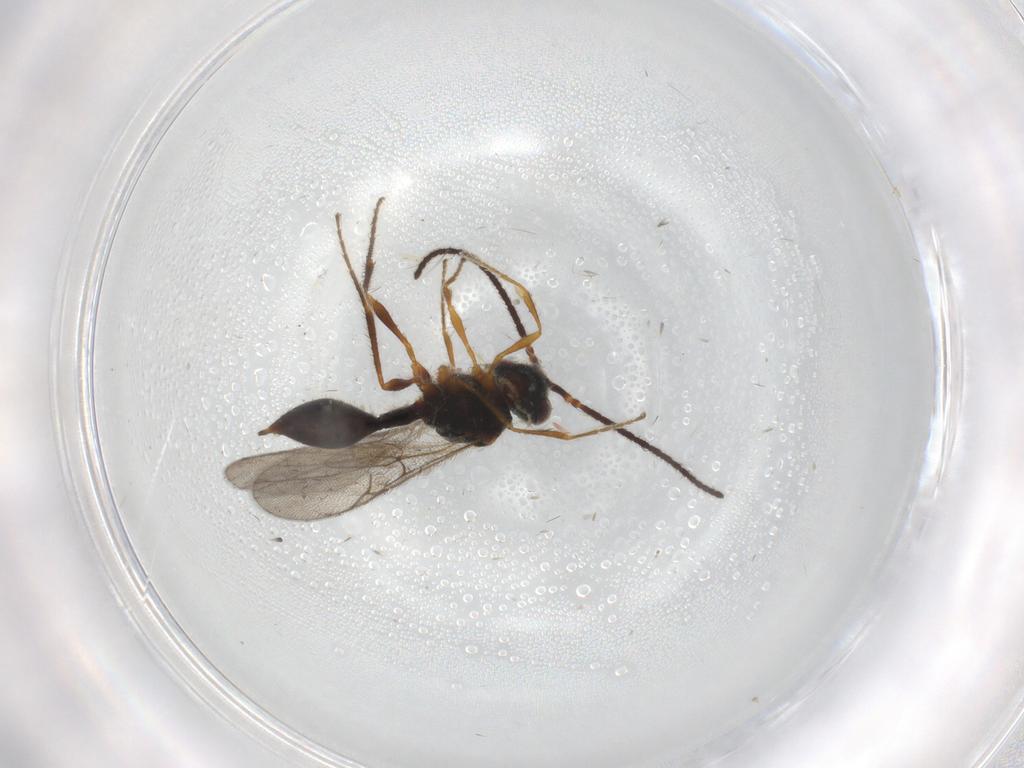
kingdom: Animalia
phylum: Arthropoda
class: Insecta
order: Hymenoptera
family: Diapriidae
